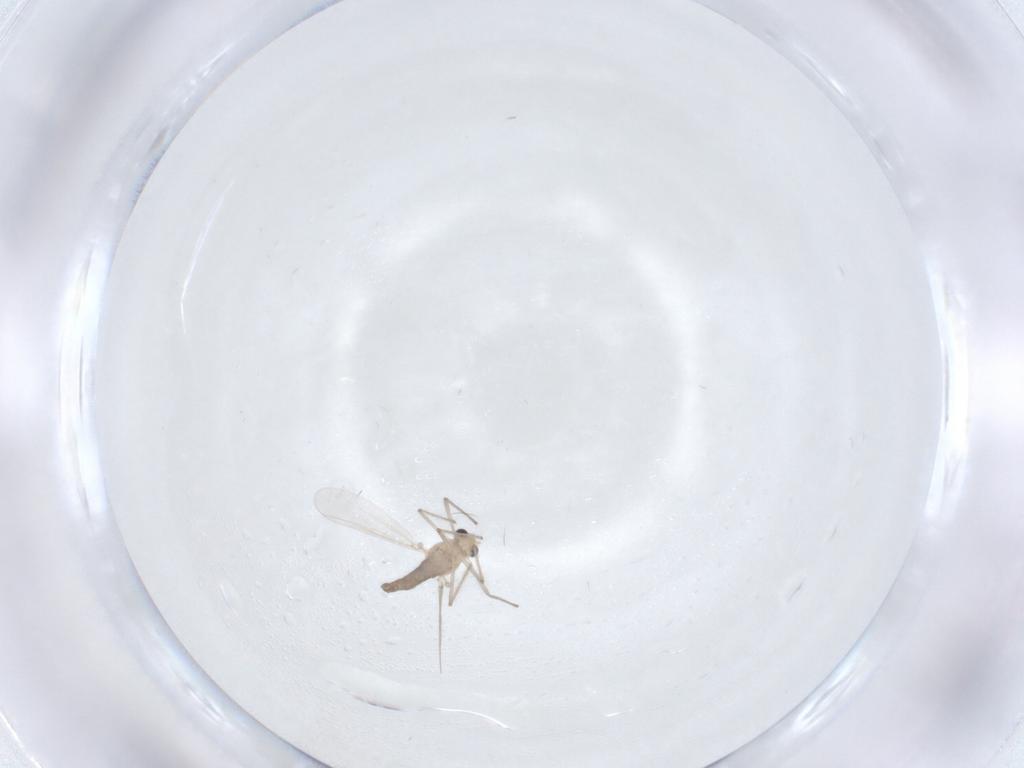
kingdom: Animalia
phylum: Arthropoda
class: Insecta
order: Diptera
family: Chironomidae
